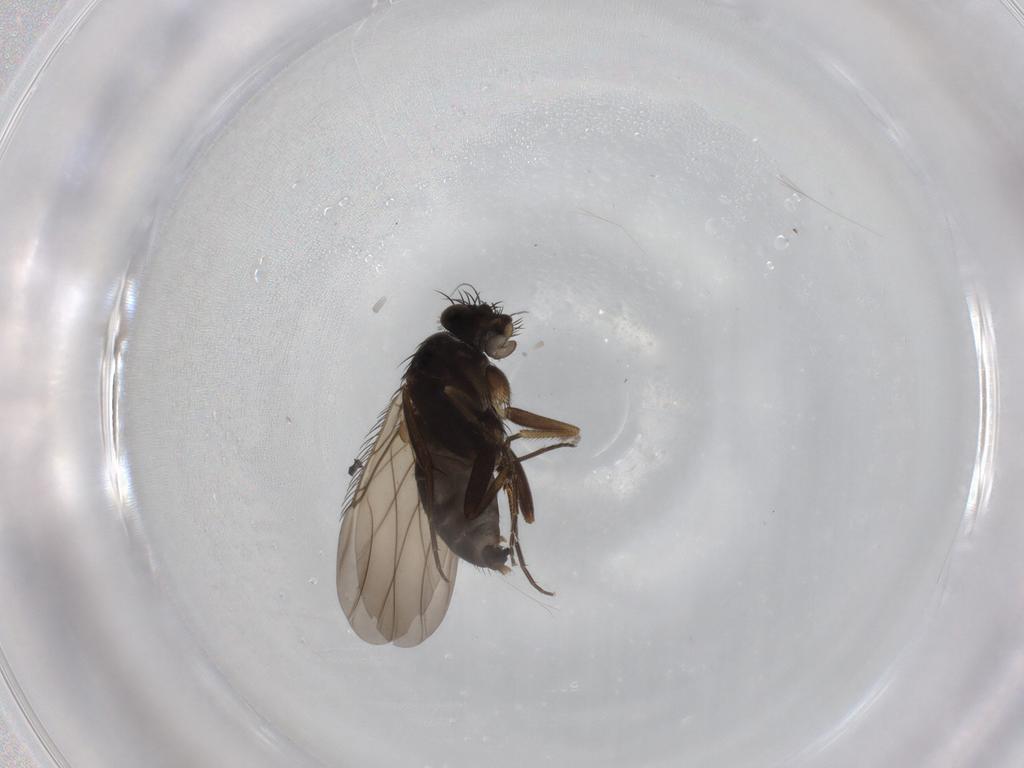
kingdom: Animalia
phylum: Arthropoda
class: Insecta
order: Diptera
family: Phoridae
